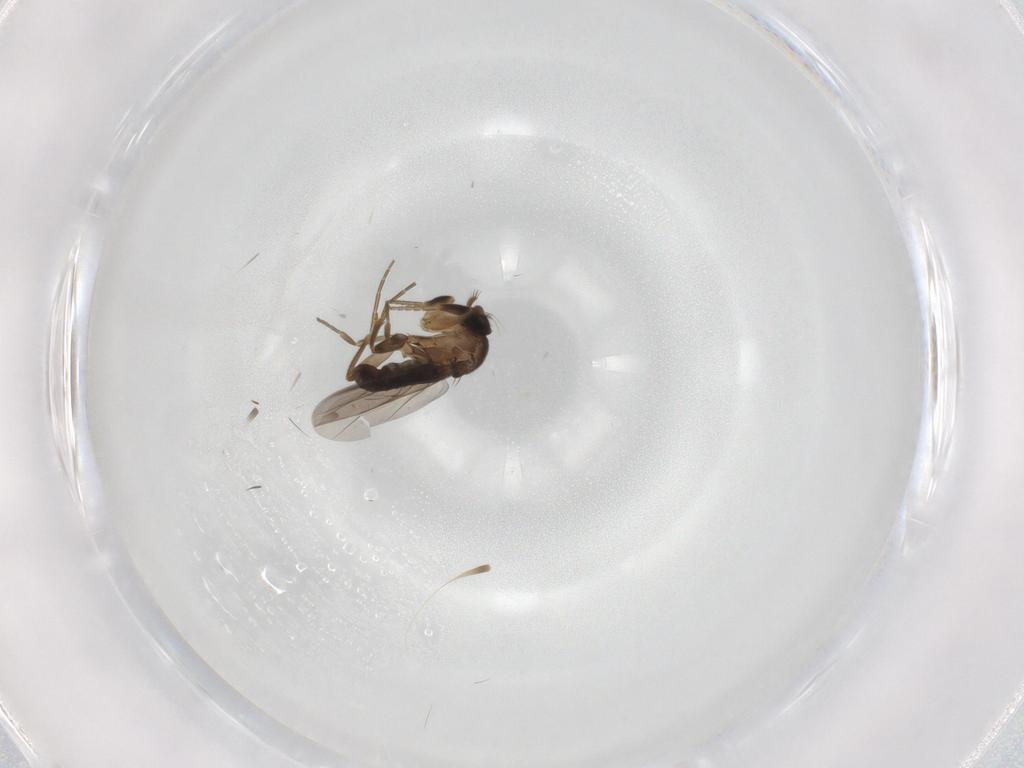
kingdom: Animalia
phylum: Arthropoda
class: Insecta
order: Diptera
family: Phoridae
